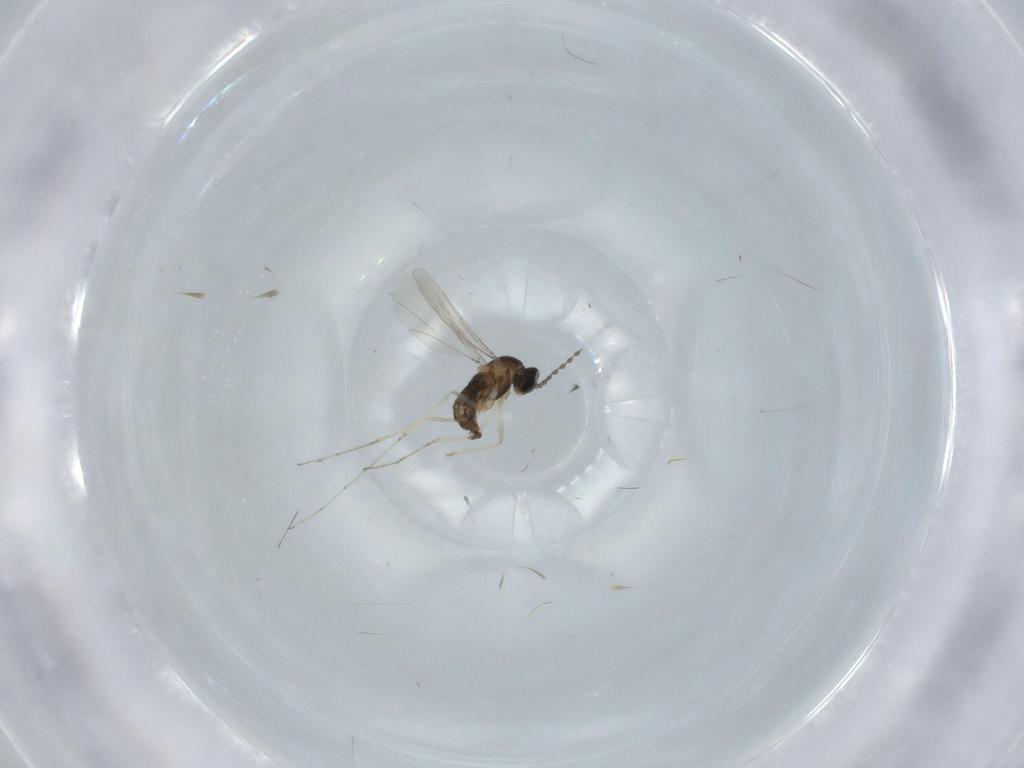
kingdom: Animalia
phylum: Arthropoda
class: Insecta
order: Diptera
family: Cecidomyiidae
